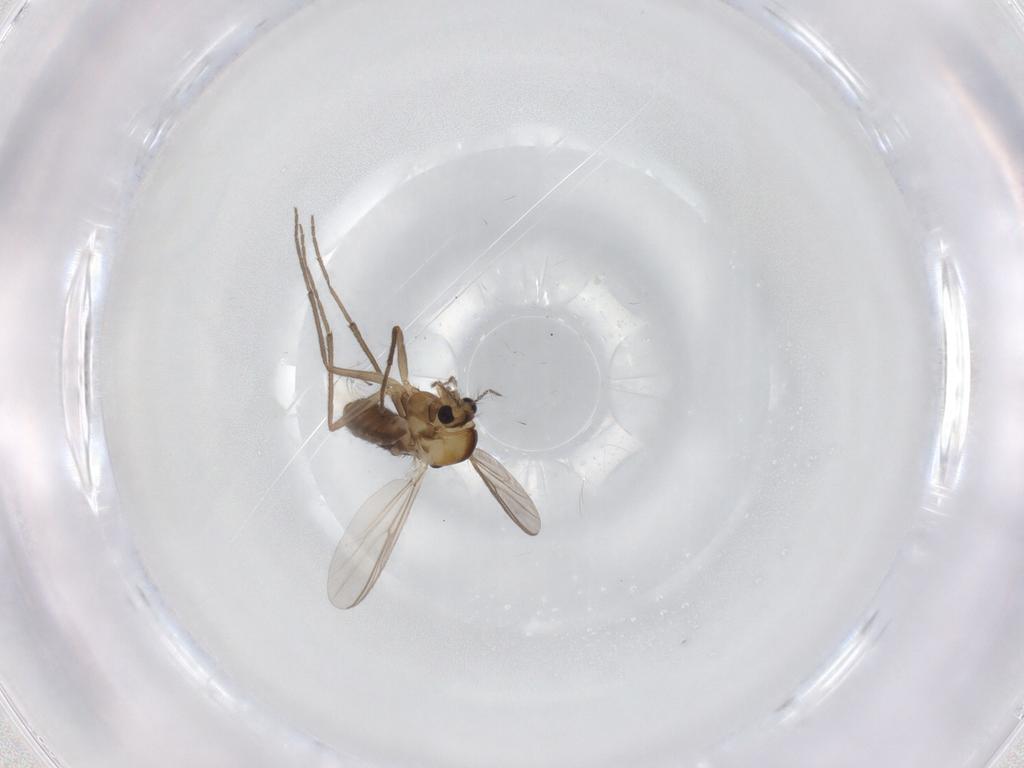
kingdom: Animalia
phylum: Arthropoda
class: Insecta
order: Diptera
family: Chironomidae
